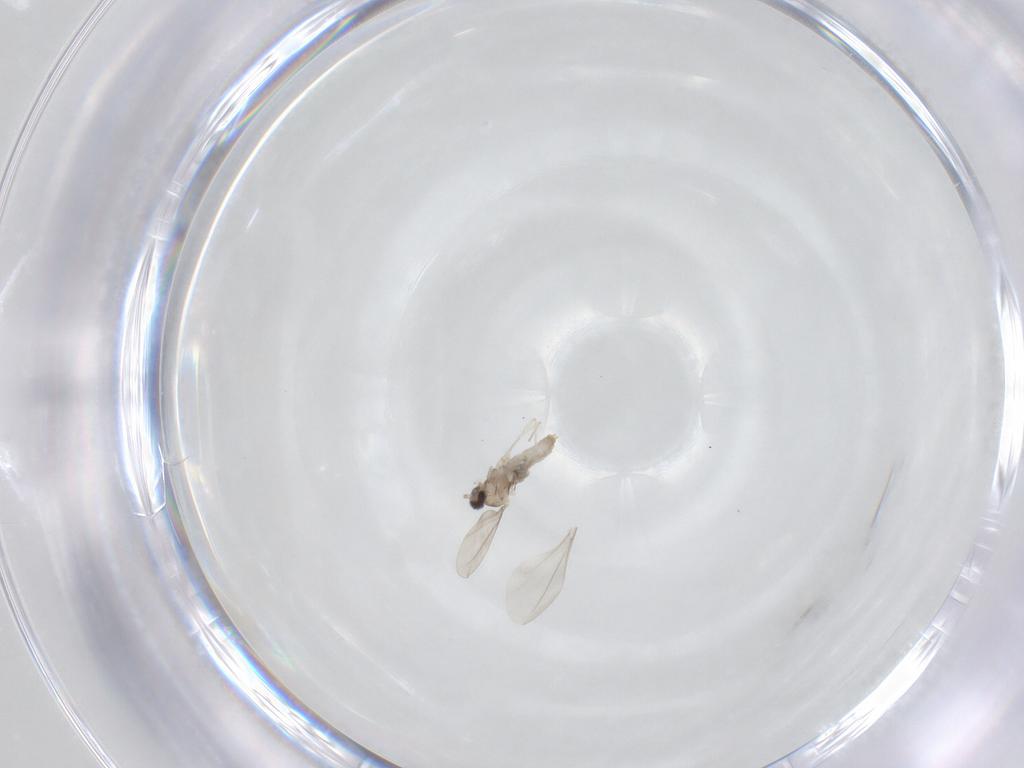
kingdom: Animalia
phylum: Arthropoda
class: Insecta
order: Diptera
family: Cecidomyiidae
